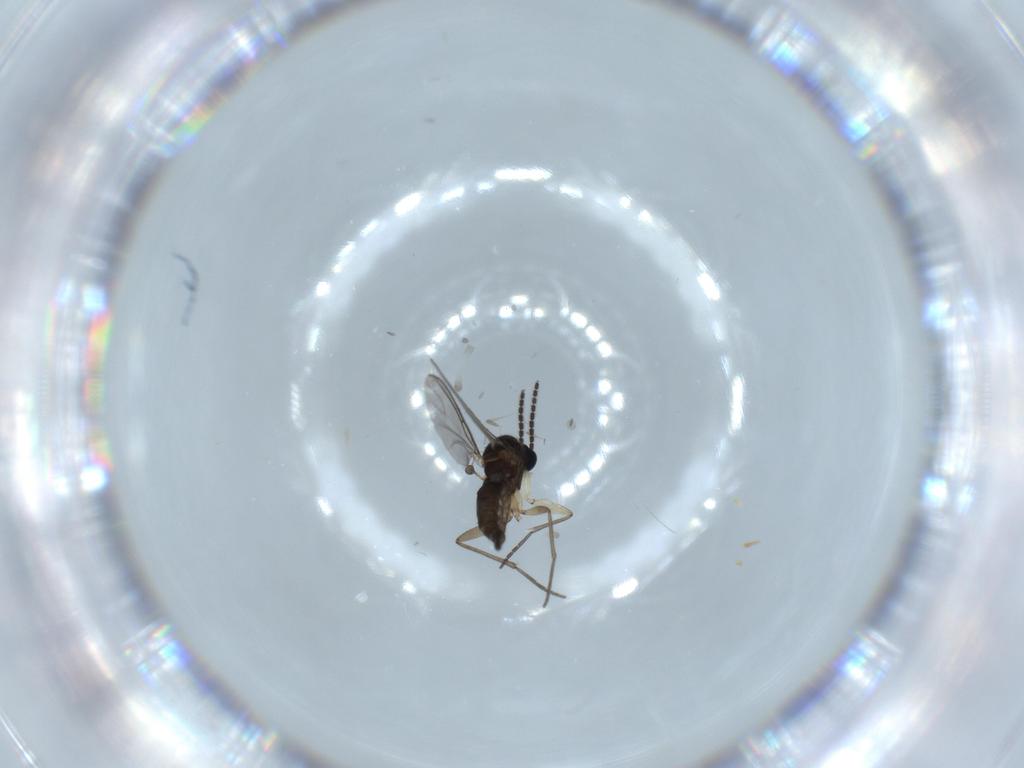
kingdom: Animalia
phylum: Arthropoda
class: Insecta
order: Diptera
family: Sciaridae
